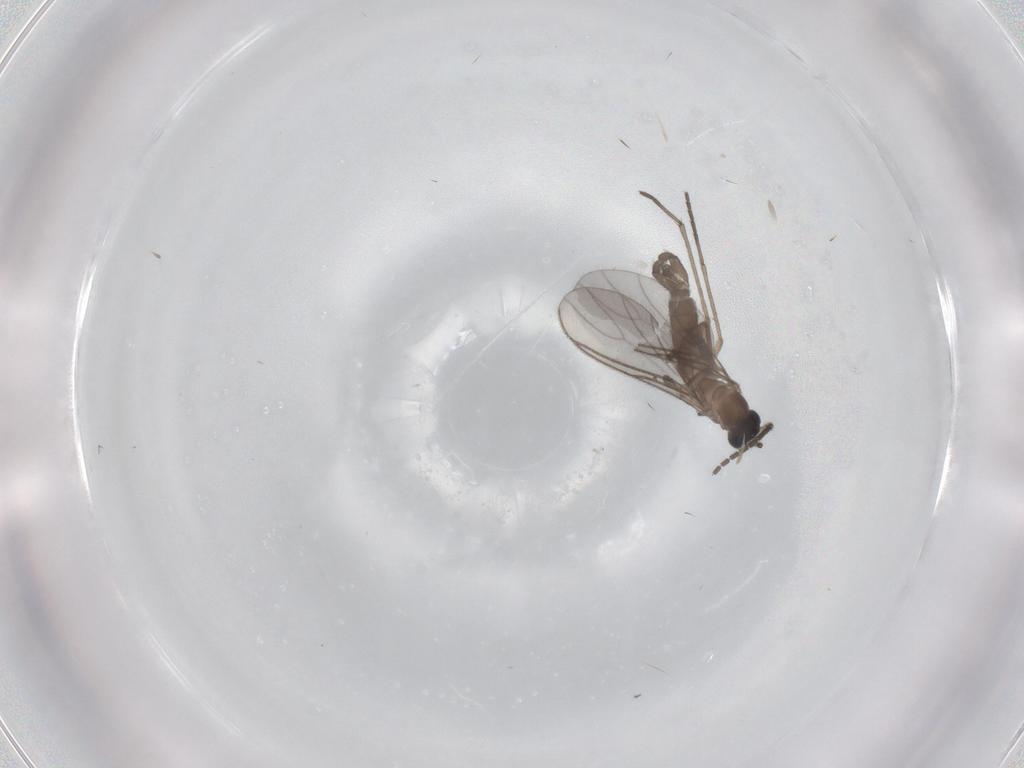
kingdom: Animalia
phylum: Arthropoda
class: Insecta
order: Diptera
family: Sciaridae
